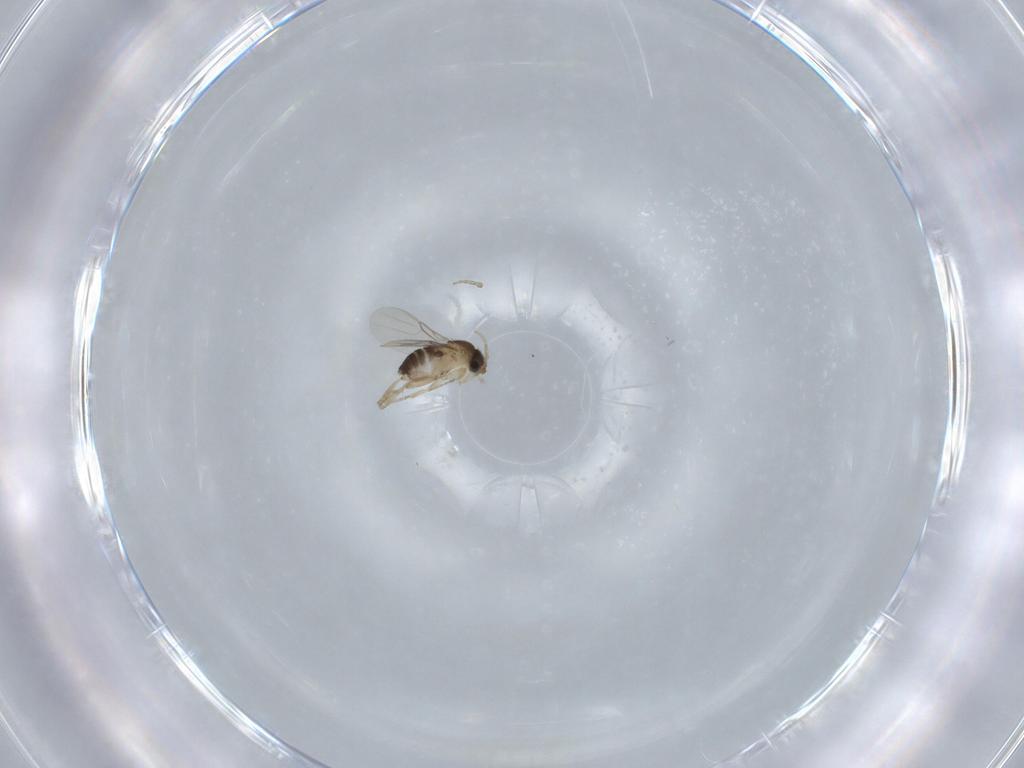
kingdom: Animalia
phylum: Arthropoda
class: Insecta
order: Diptera
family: Phoridae
